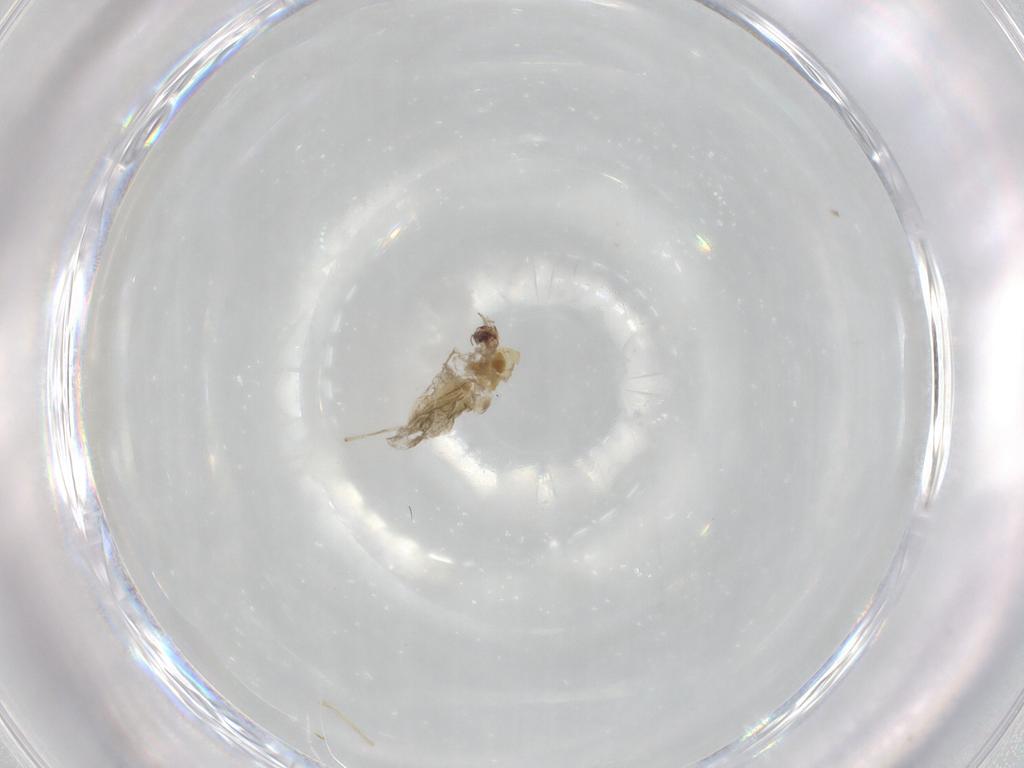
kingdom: Animalia
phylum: Arthropoda
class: Insecta
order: Diptera
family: Chironomidae
